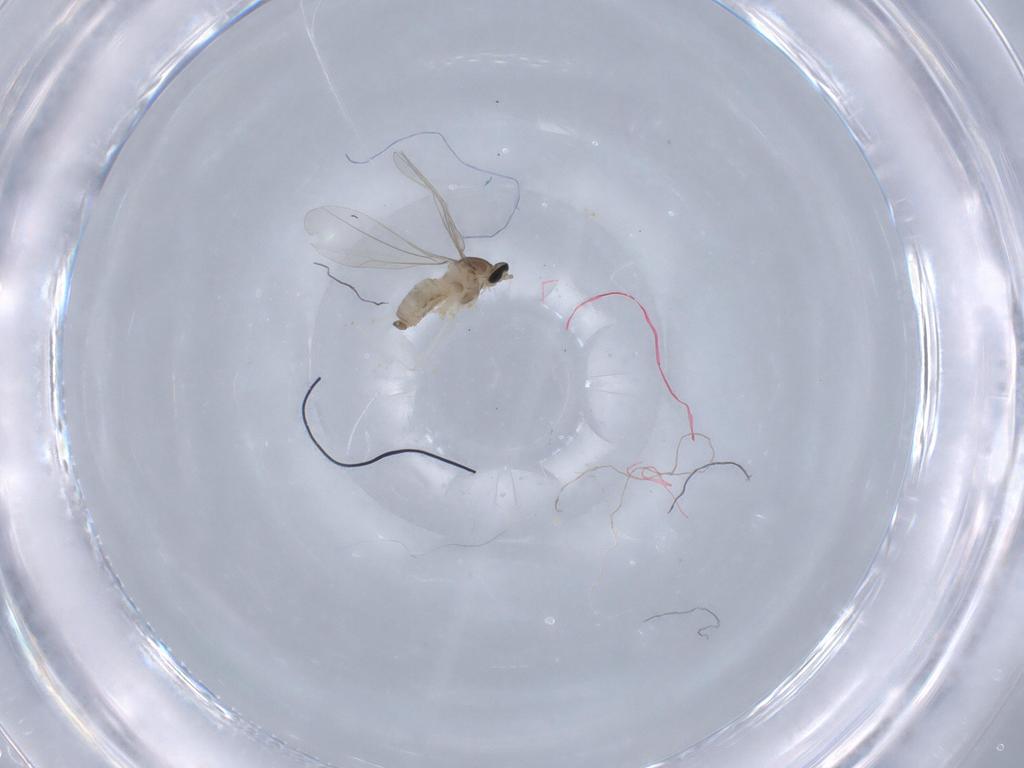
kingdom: Animalia
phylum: Arthropoda
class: Insecta
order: Diptera
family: Cecidomyiidae
